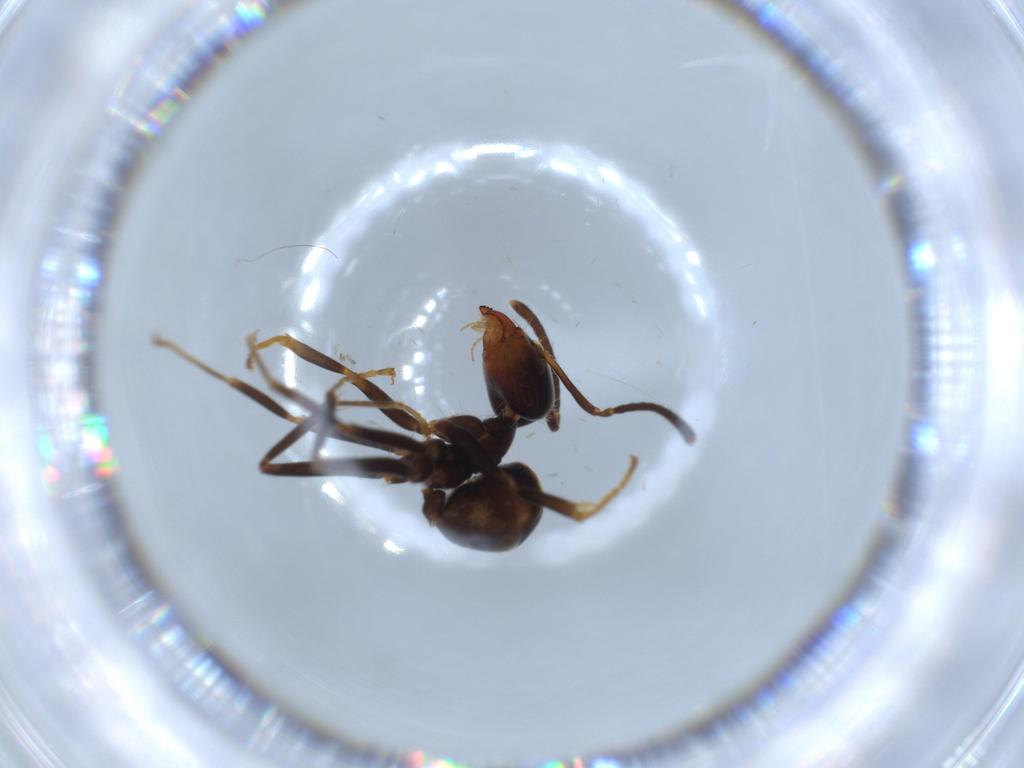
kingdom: Animalia
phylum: Arthropoda
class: Insecta
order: Hymenoptera
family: Formicidae
